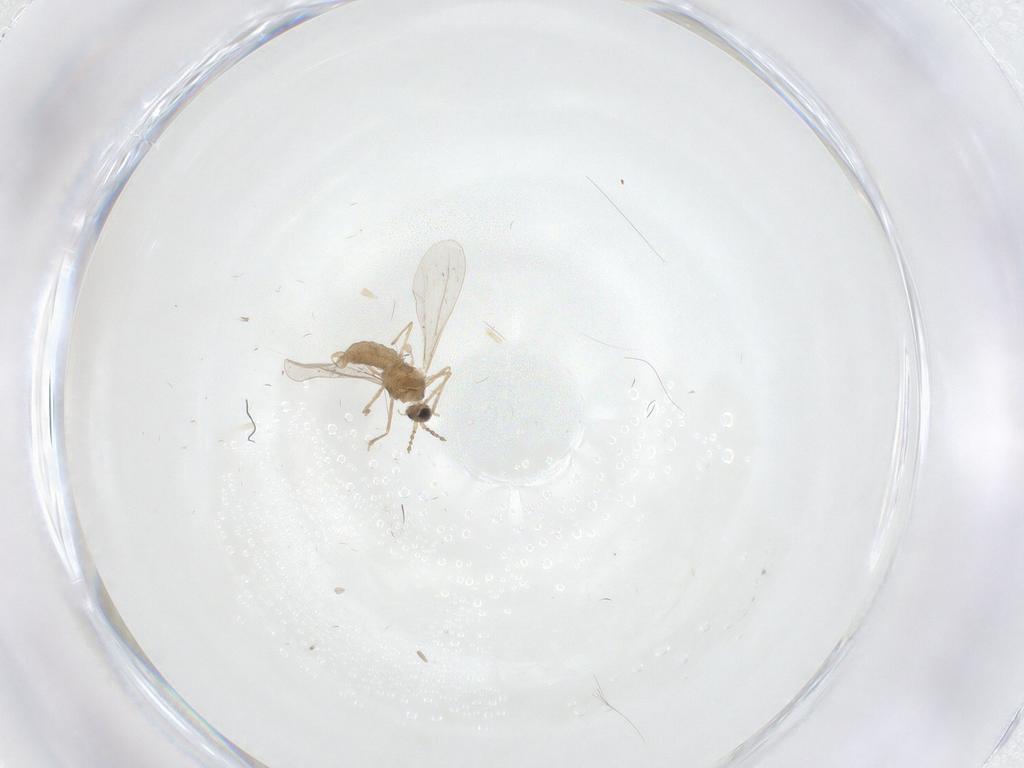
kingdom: Animalia
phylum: Arthropoda
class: Insecta
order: Diptera
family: Cecidomyiidae
